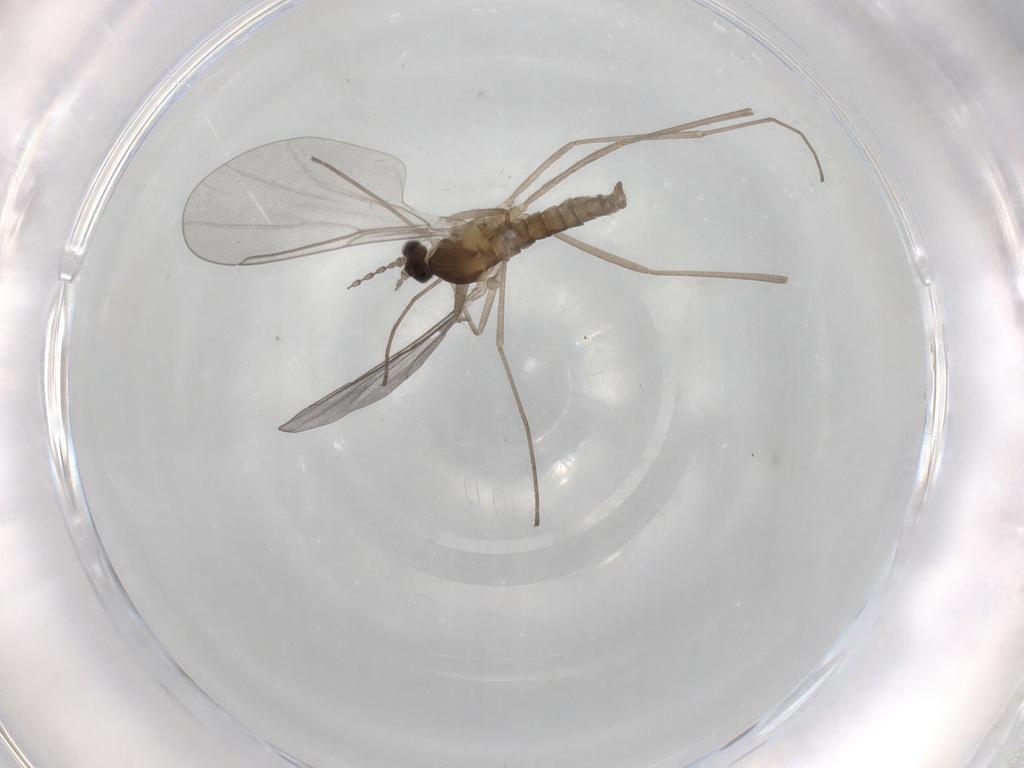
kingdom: Animalia
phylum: Arthropoda
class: Insecta
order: Diptera
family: Cecidomyiidae
